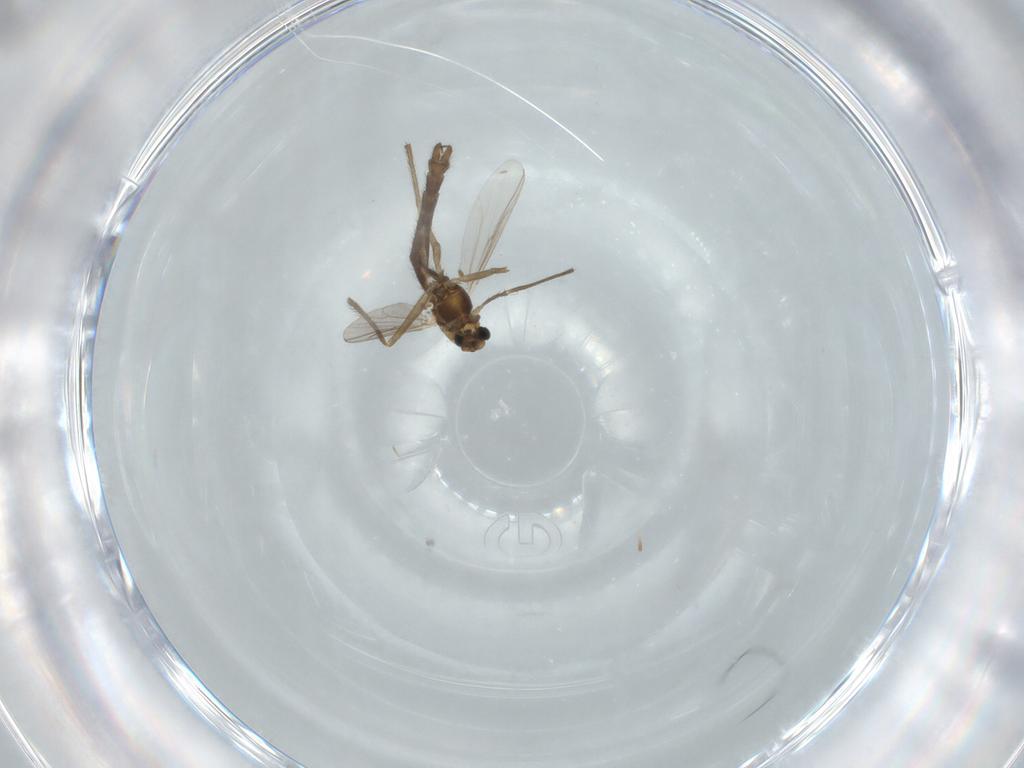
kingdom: Animalia
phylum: Arthropoda
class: Insecta
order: Diptera
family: Chironomidae
